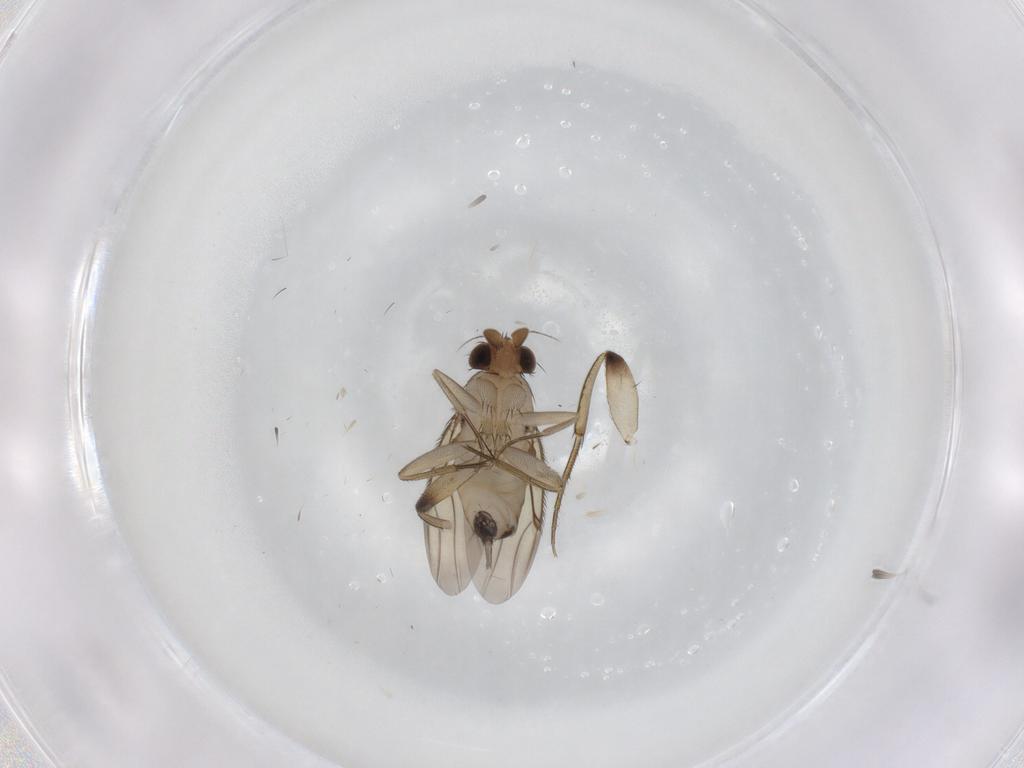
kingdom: Animalia
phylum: Arthropoda
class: Insecta
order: Diptera
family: Phoridae
